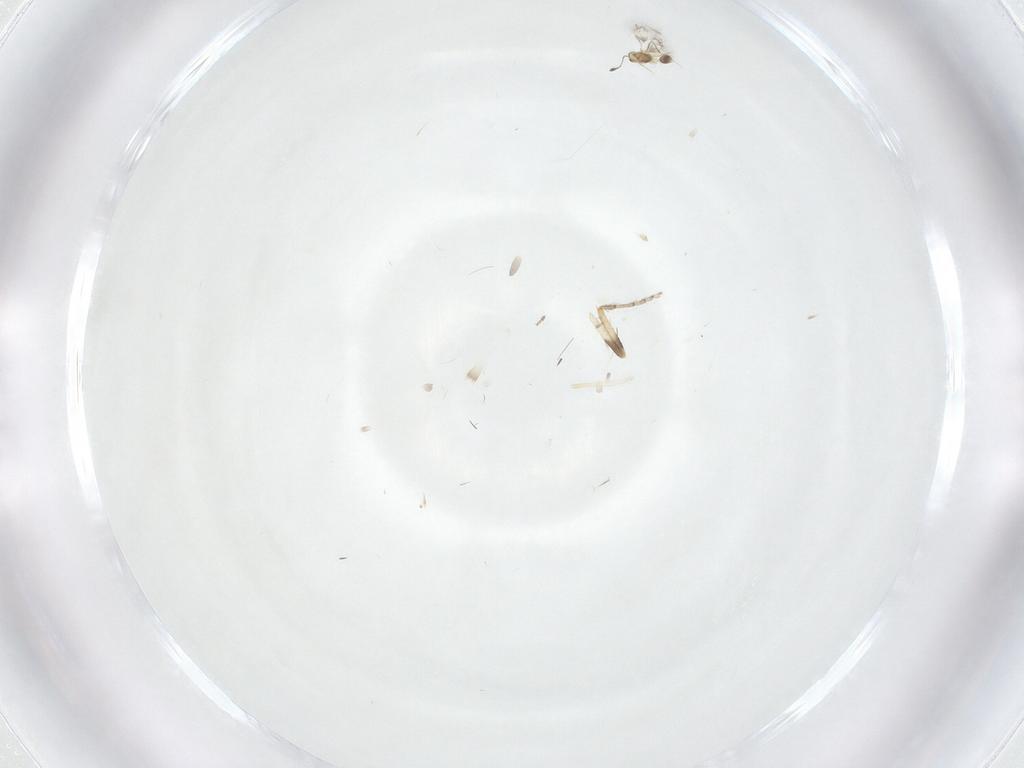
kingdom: Animalia
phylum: Arthropoda
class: Insecta
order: Diptera
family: Ceratopogonidae
